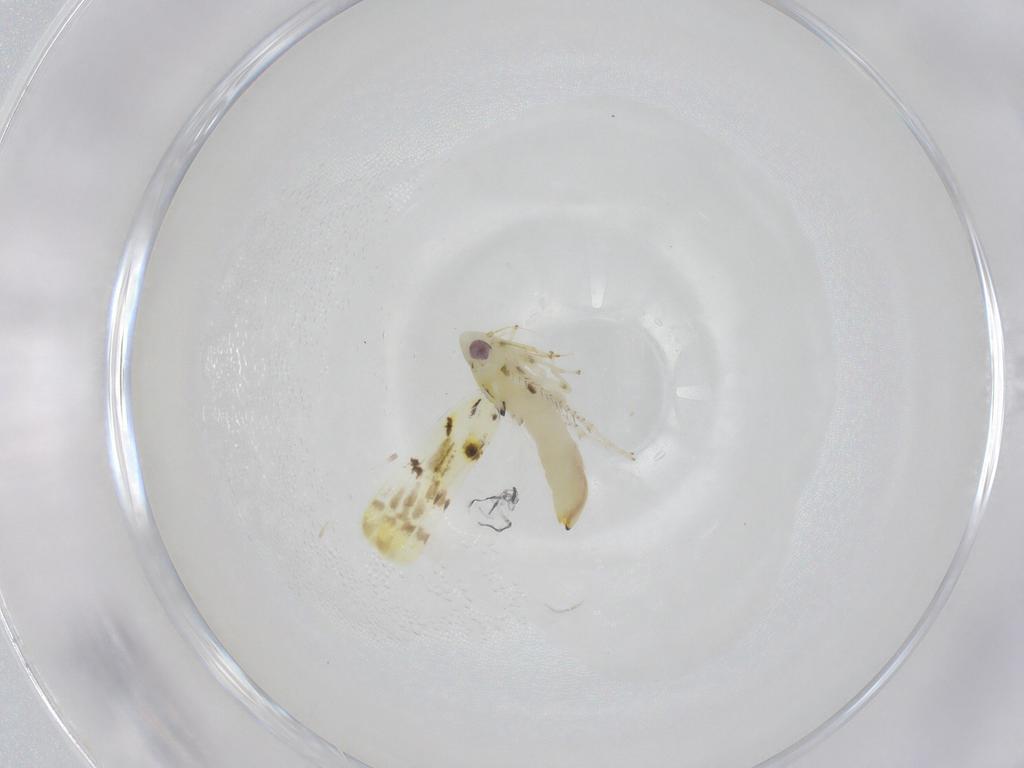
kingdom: Animalia
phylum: Arthropoda
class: Insecta
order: Hemiptera
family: Cicadellidae
